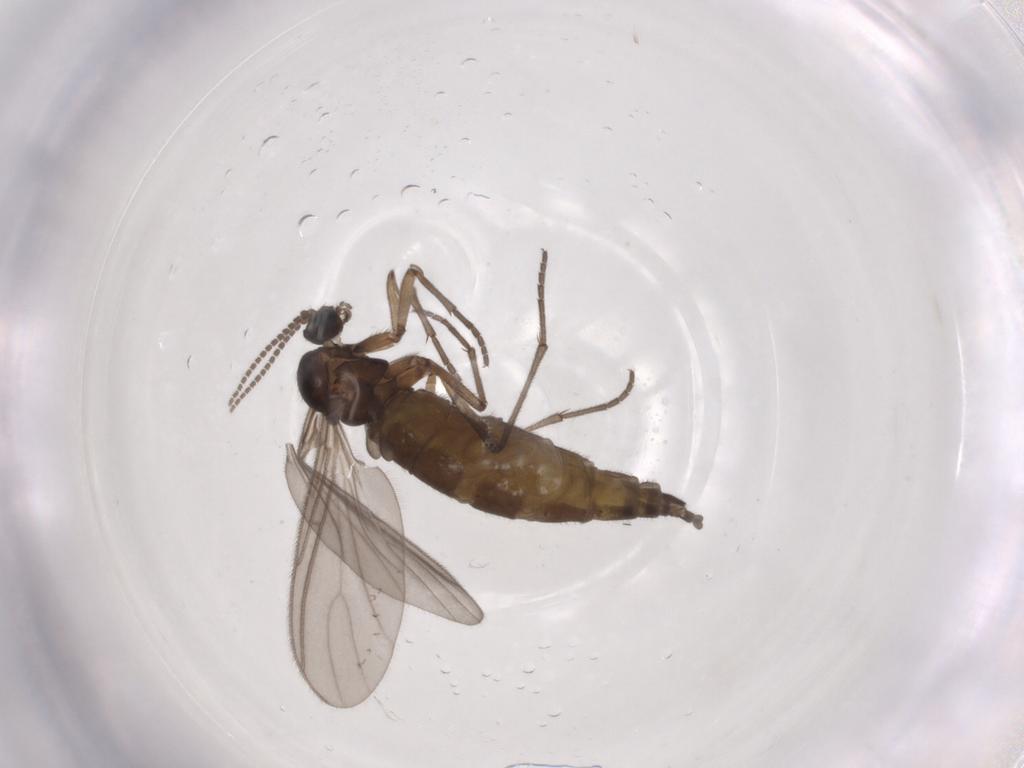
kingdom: Animalia
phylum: Arthropoda
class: Insecta
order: Diptera
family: Sciaridae
